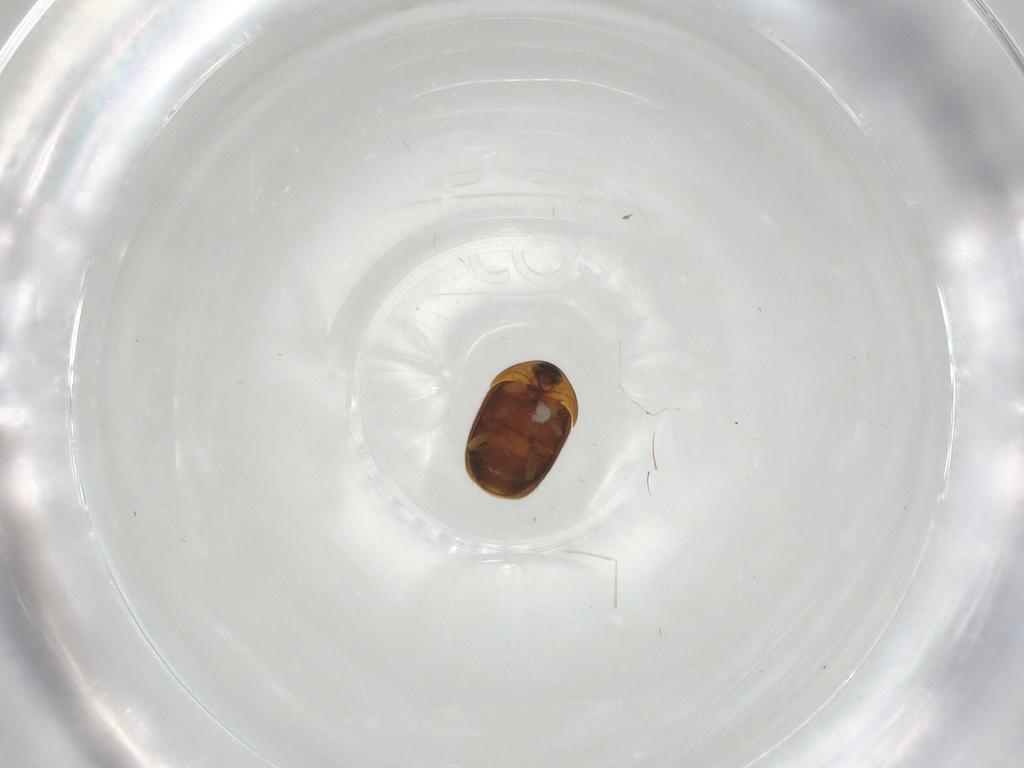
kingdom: Animalia
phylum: Arthropoda
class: Insecta
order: Coleoptera
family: Corylophidae
